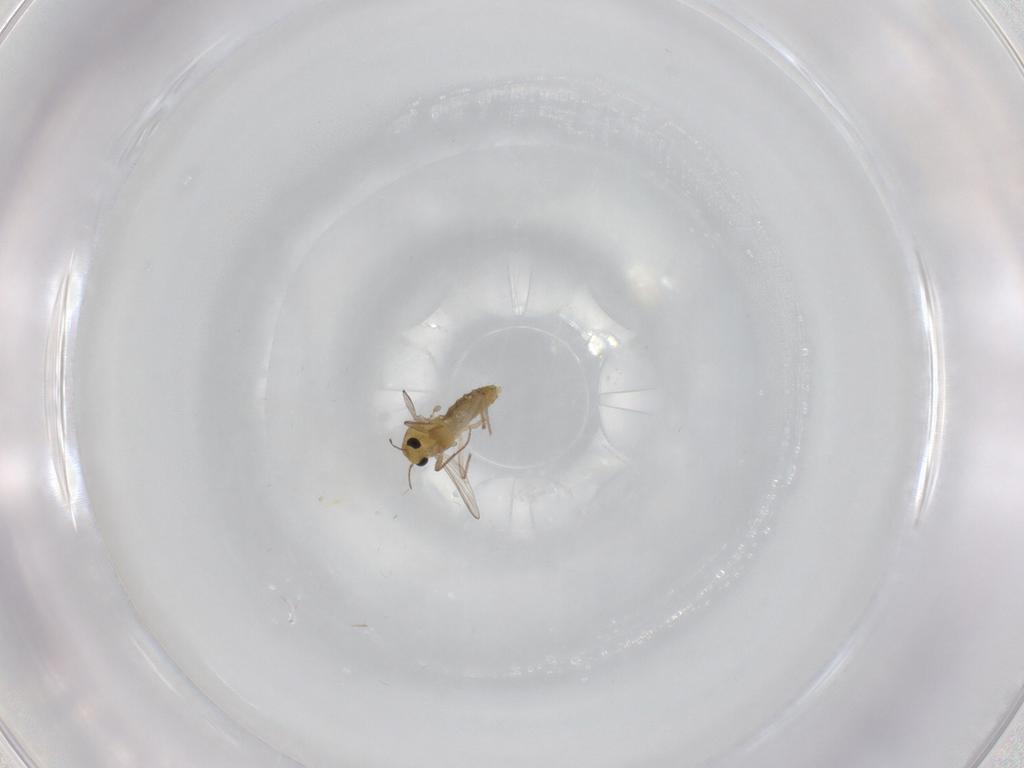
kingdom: Animalia
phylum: Arthropoda
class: Insecta
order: Diptera
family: Chironomidae
